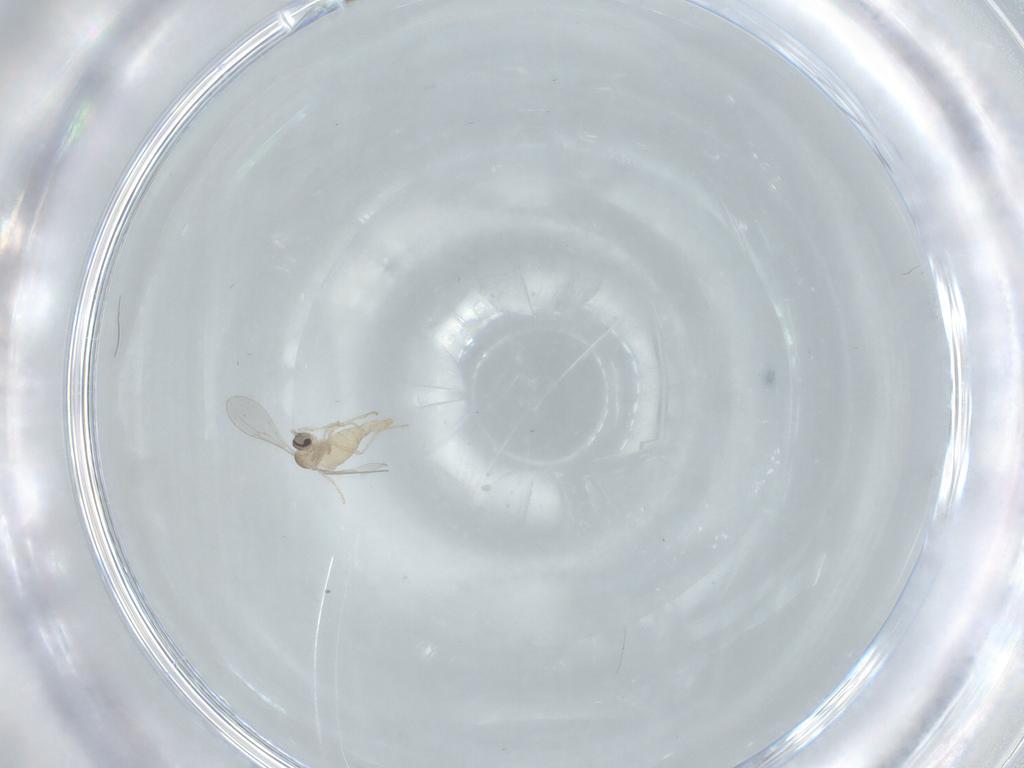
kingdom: Animalia
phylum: Arthropoda
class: Insecta
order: Diptera
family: Cecidomyiidae
